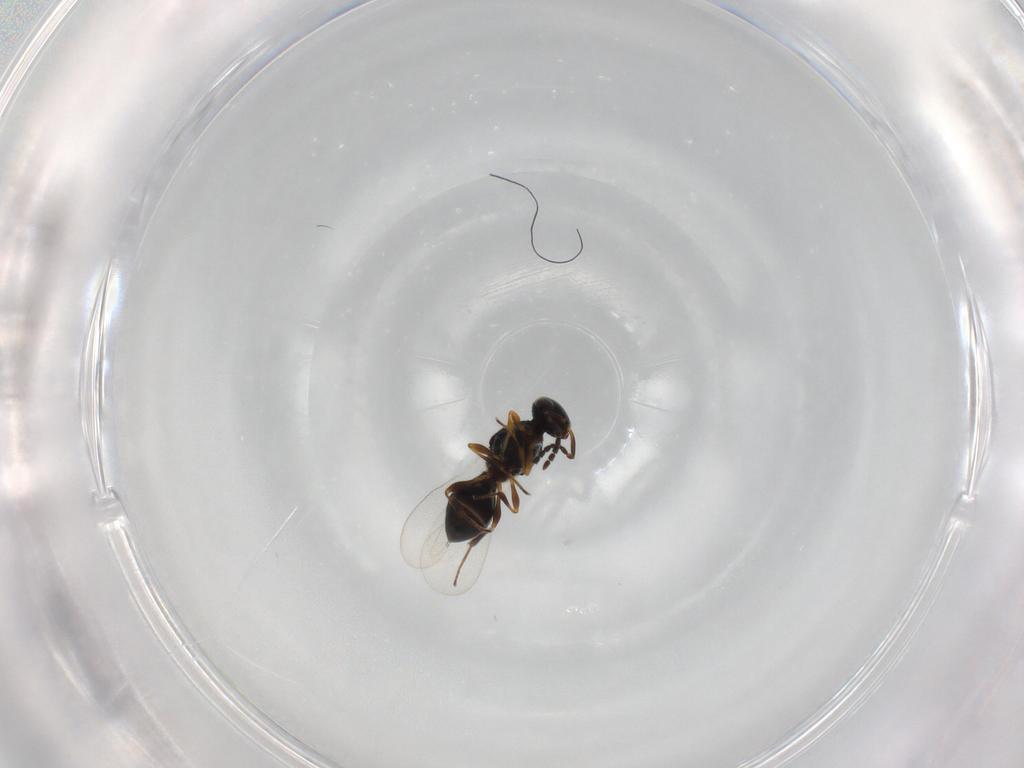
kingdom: Animalia
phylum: Arthropoda
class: Insecta
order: Hymenoptera
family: Platygastridae
